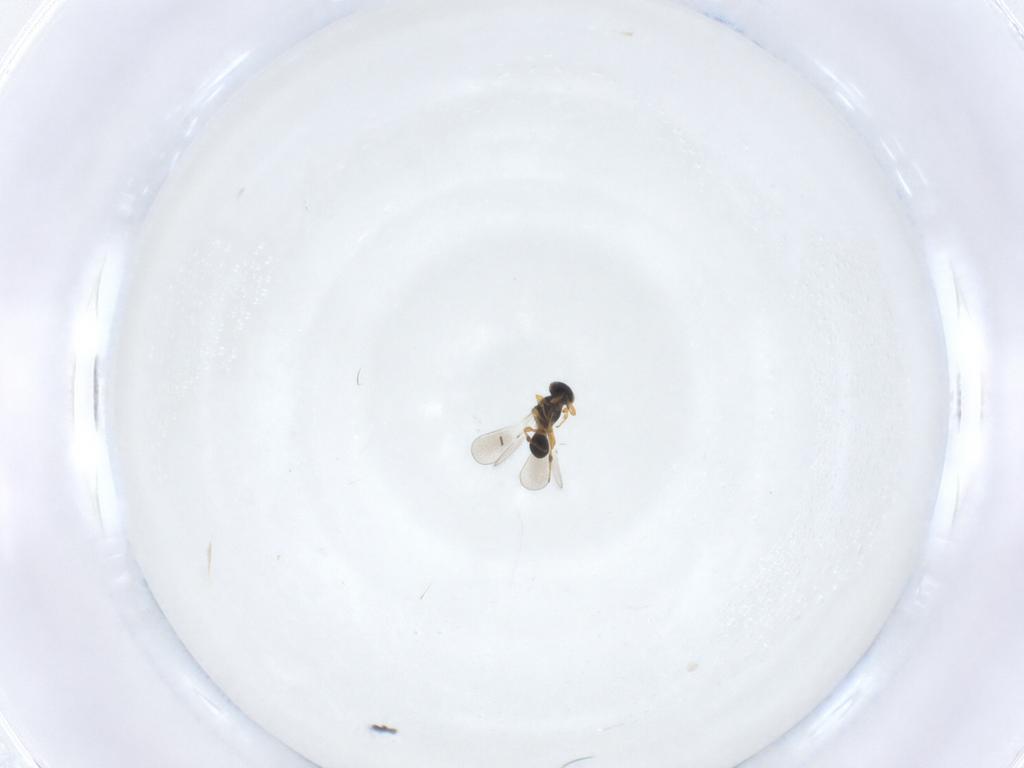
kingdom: Animalia
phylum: Arthropoda
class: Insecta
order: Hymenoptera
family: Platygastridae
